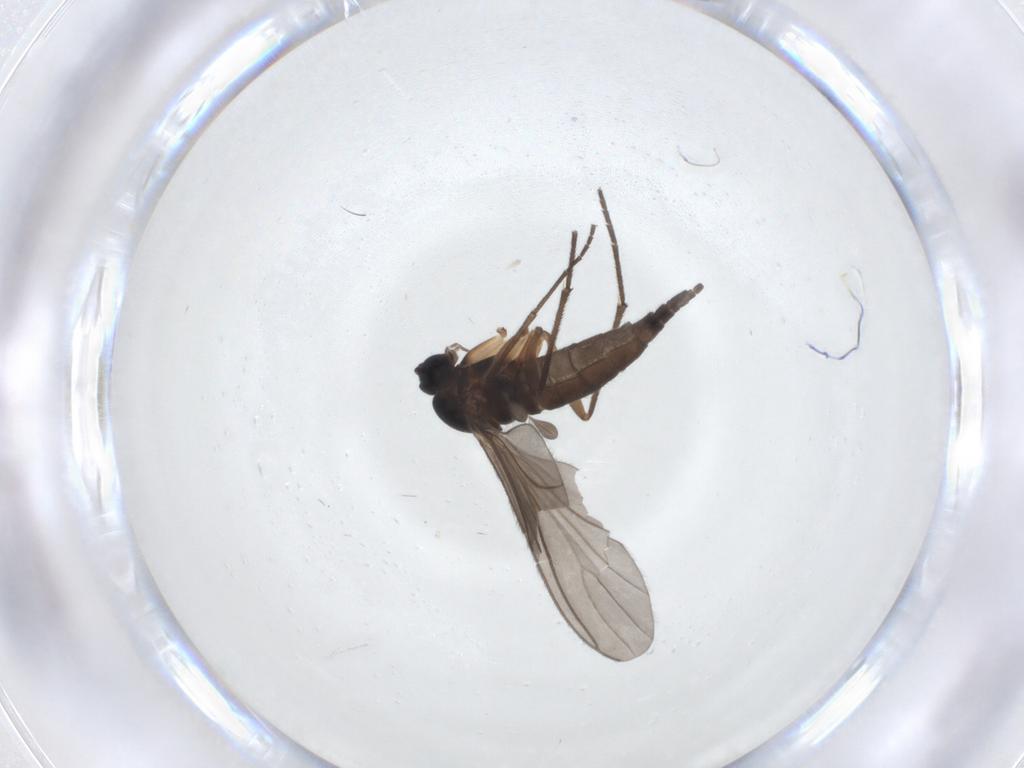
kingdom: Animalia
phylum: Arthropoda
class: Insecta
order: Diptera
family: Sciaridae
